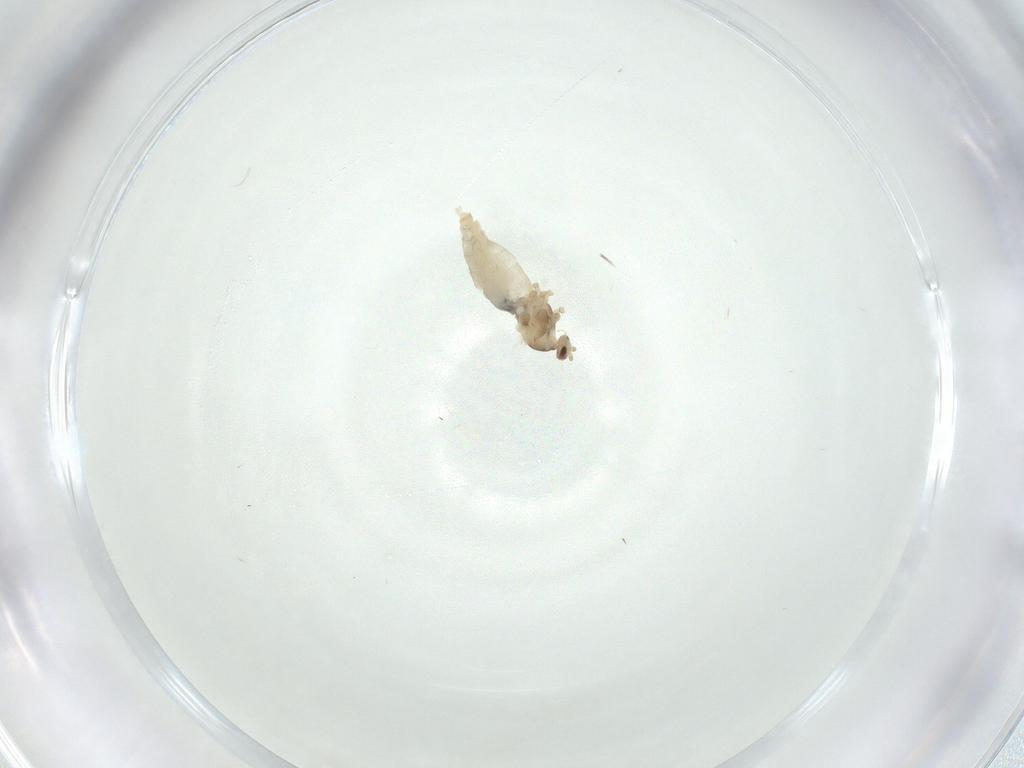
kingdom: Animalia
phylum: Arthropoda
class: Insecta
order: Diptera
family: Cecidomyiidae
